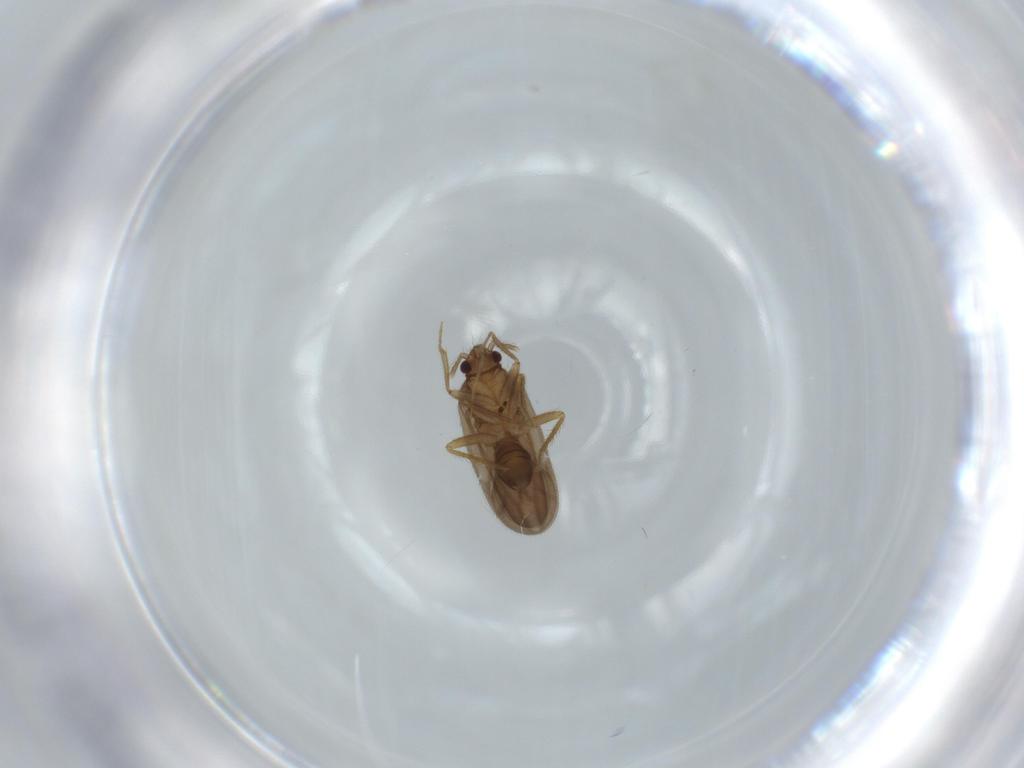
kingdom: Animalia
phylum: Arthropoda
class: Insecta
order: Hemiptera
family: Ceratocombidae
